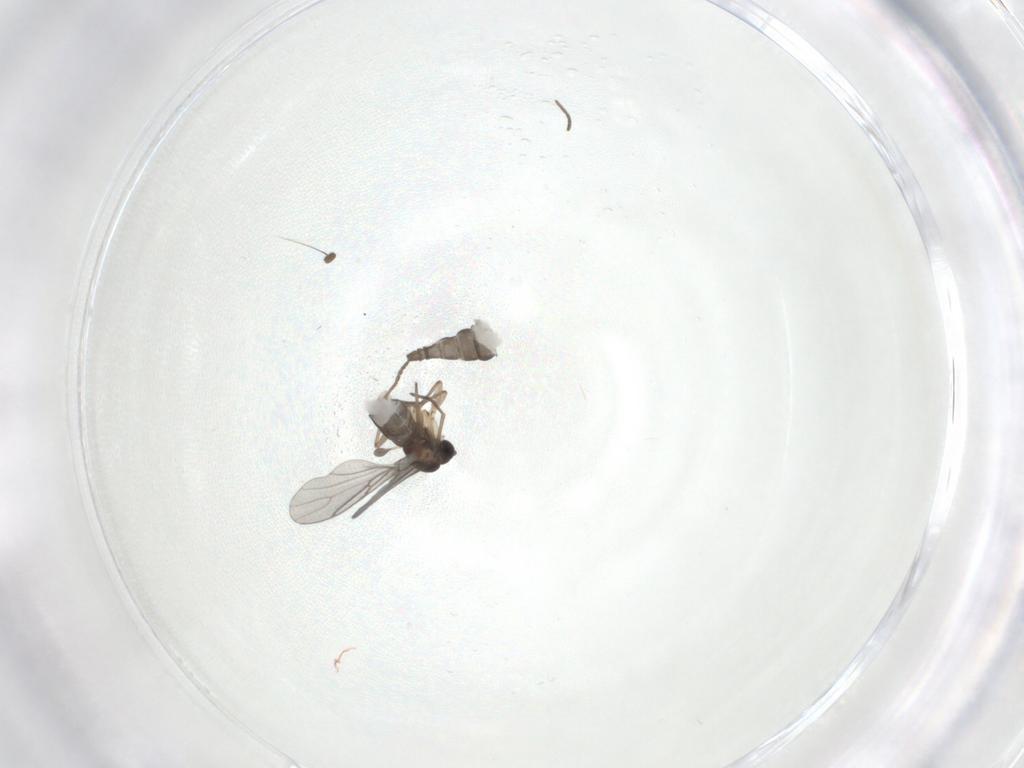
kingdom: Animalia
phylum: Arthropoda
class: Insecta
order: Diptera
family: Sciaridae
